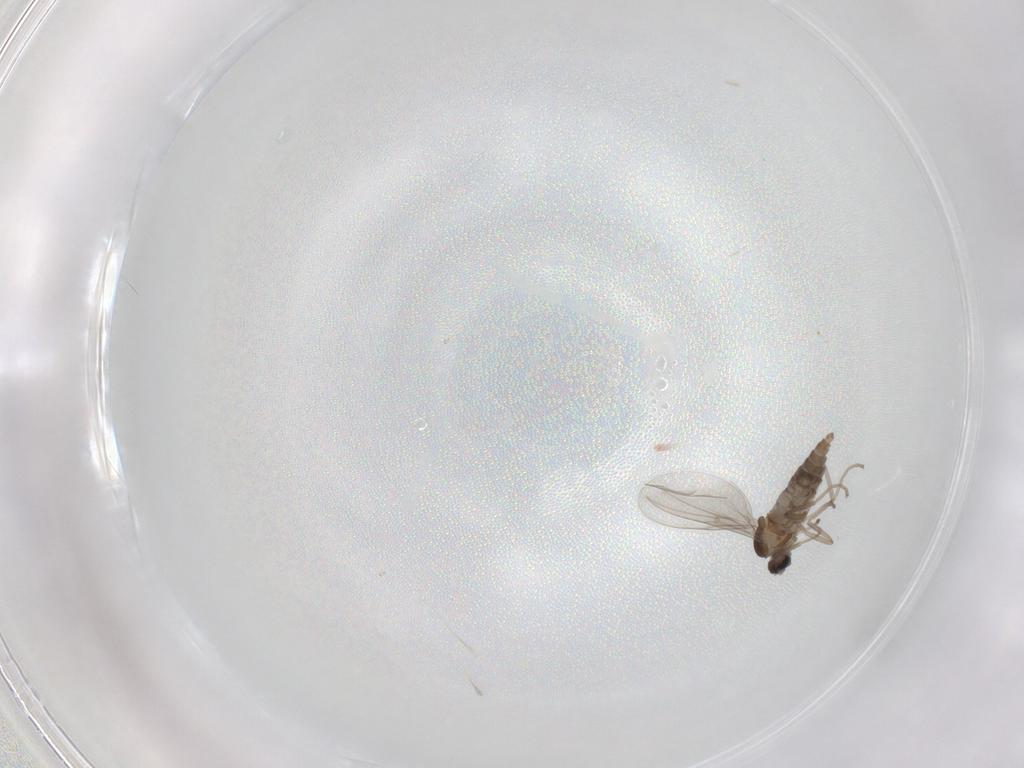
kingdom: Animalia
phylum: Arthropoda
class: Insecta
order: Diptera
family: Cecidomyiidae
